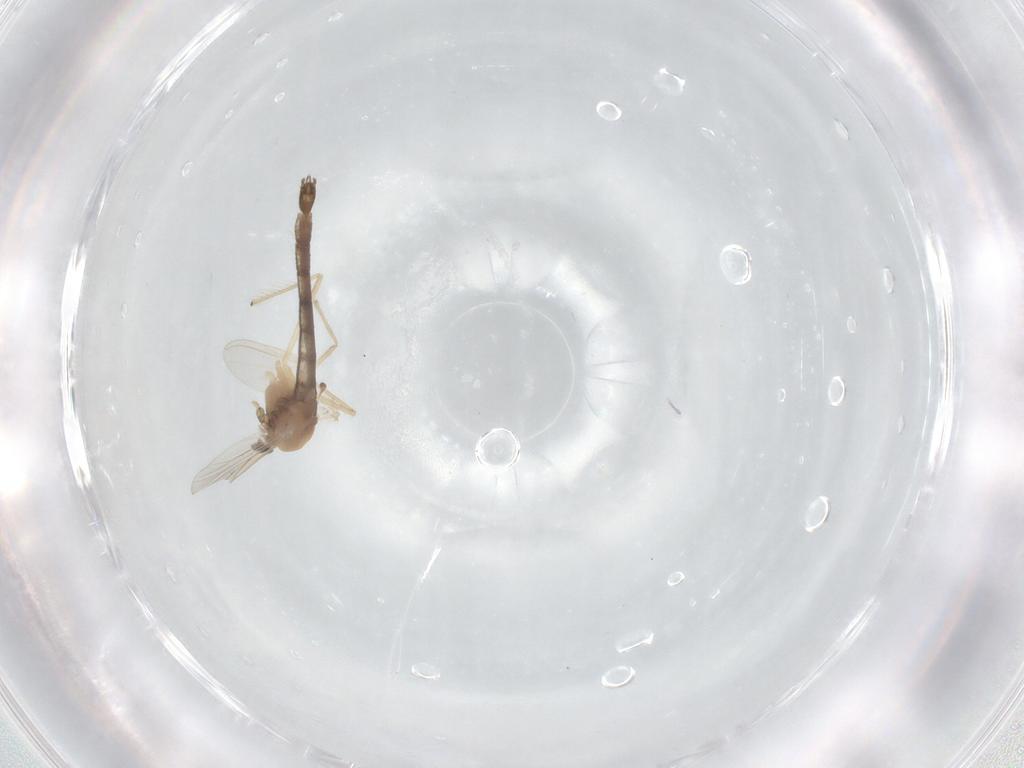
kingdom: Animalia
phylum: Arthropoda
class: Insecta
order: Diptera
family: Chironomidae
